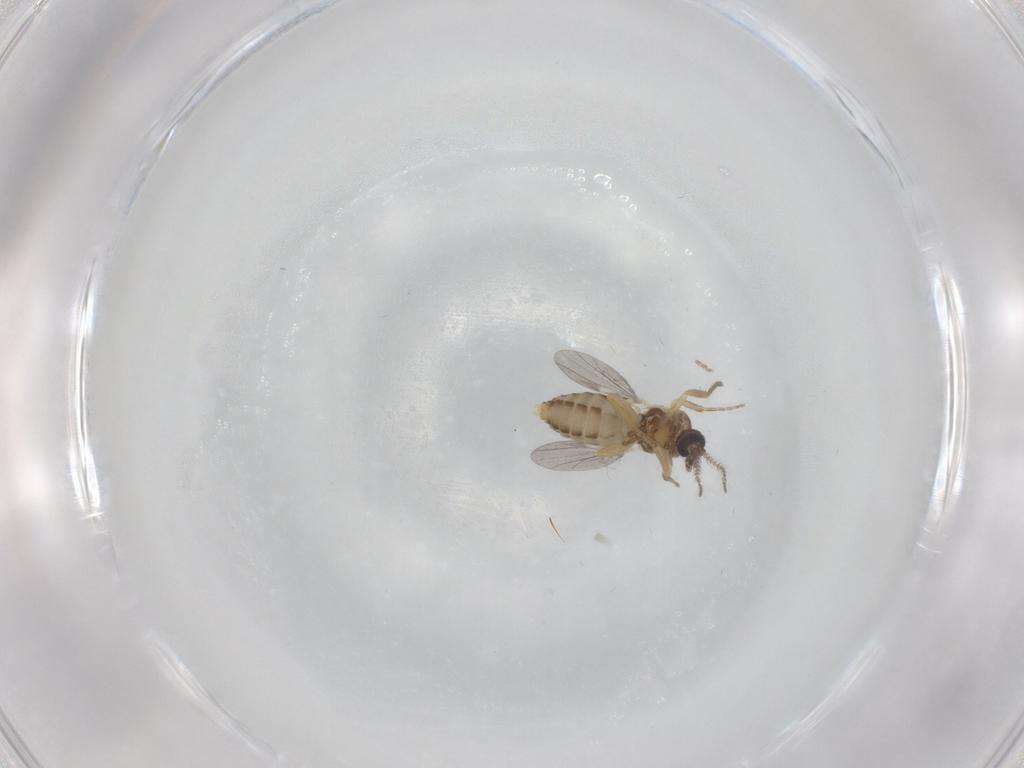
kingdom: Animalia
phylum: Arthropoda
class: Insecta
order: Diptera
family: Ceratopogonidae
